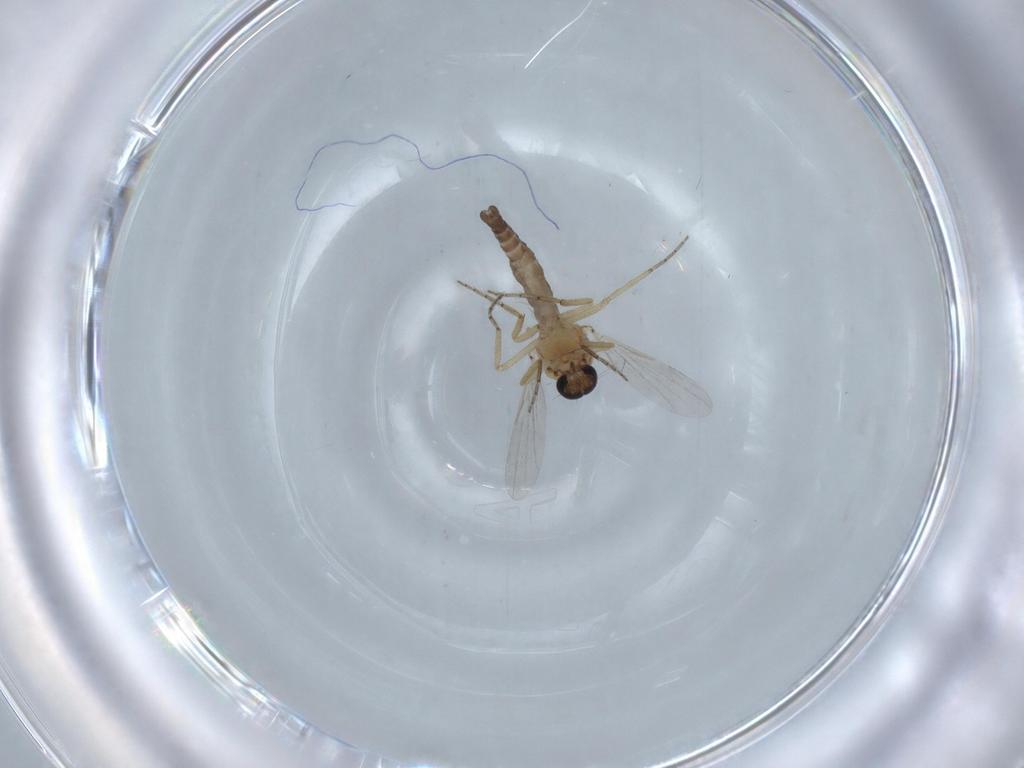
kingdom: Animalia
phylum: Arthropoda
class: Insecta
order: Diptera
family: Ceratopogonidae
